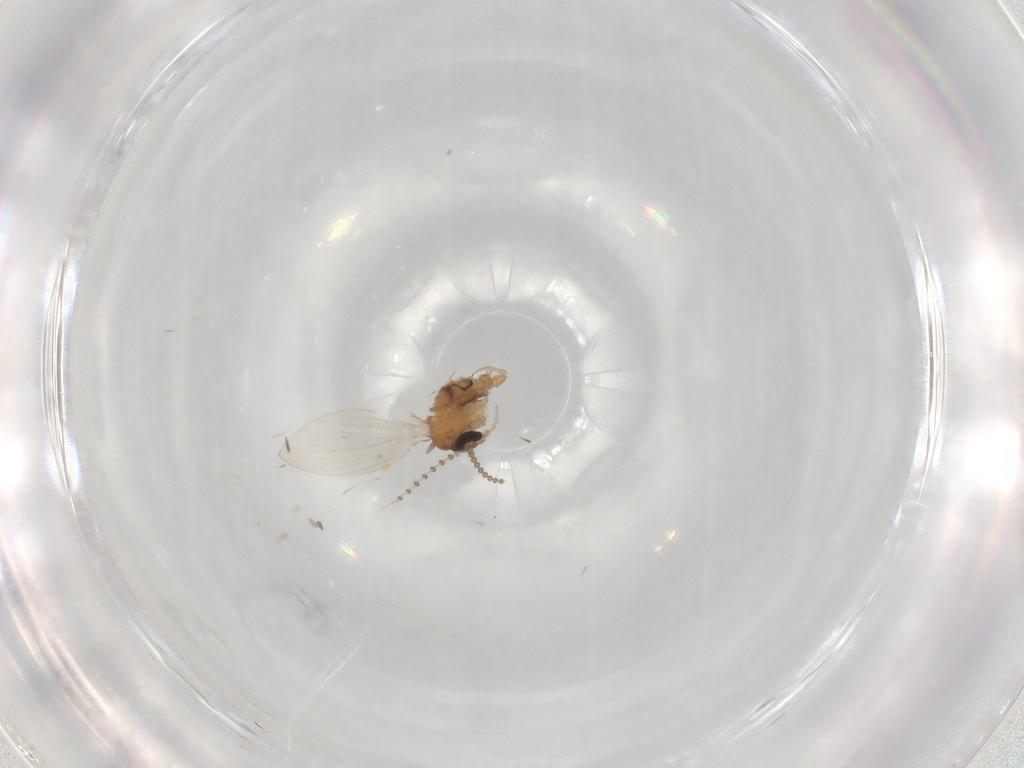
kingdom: Animalia
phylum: Arthropoda
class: Insecta
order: Diptera
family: Psychodidae
